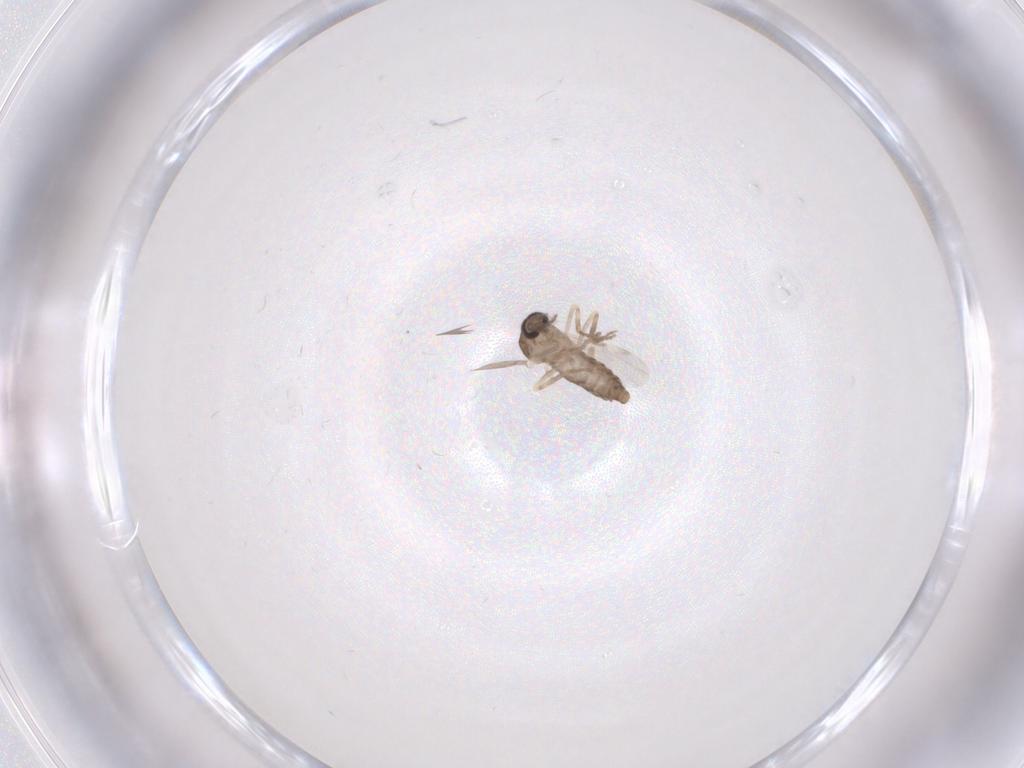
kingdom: Animalia
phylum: Arthropoda
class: Insecta
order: Diptera
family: Ceratopogonidae
